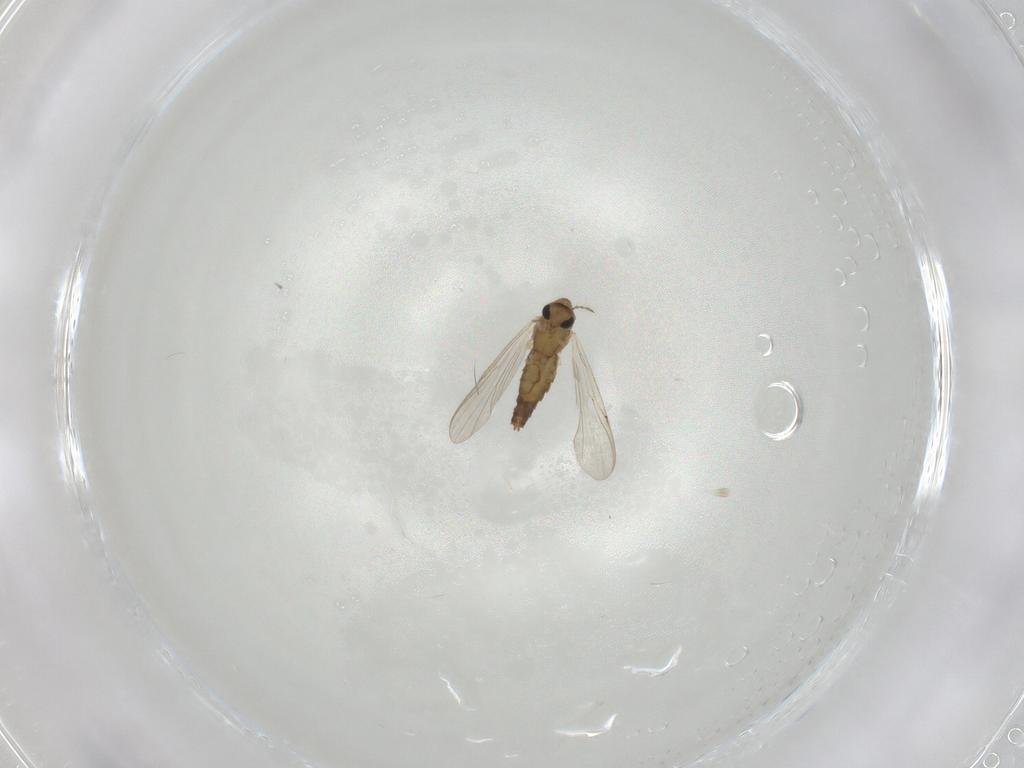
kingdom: Animalia
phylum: Arthropoda
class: Insecta
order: Diptera
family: Chironomidae
